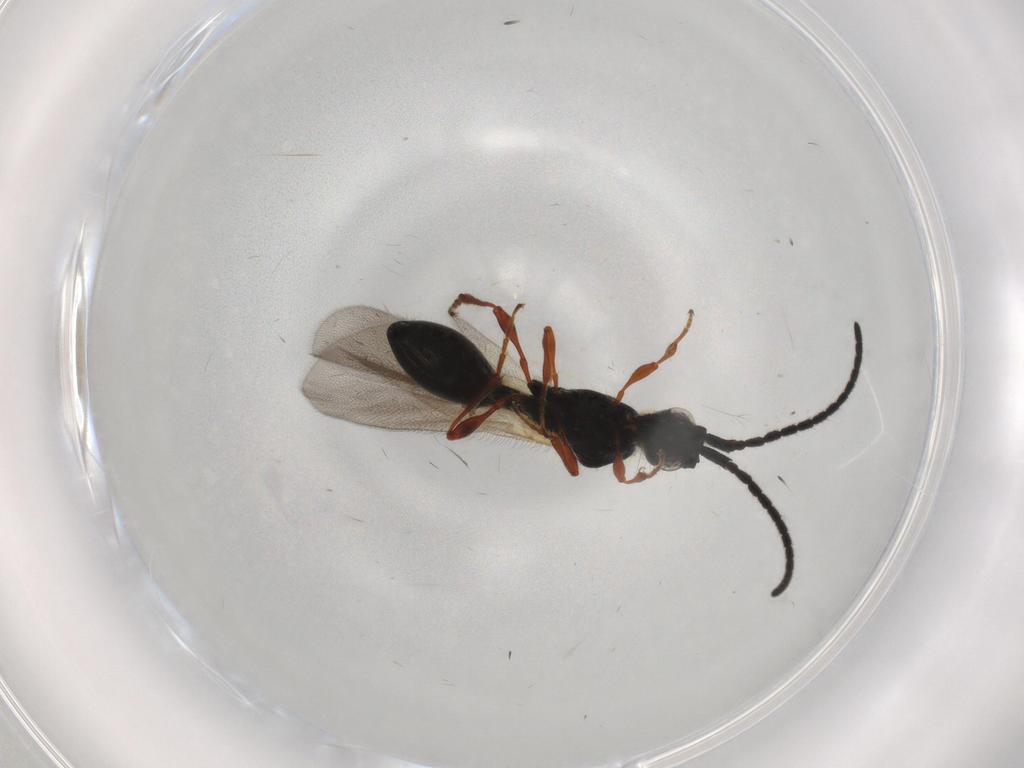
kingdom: Animalia
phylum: Arthropoda
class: Insecta
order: Hymenoptera
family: Diapriidae
